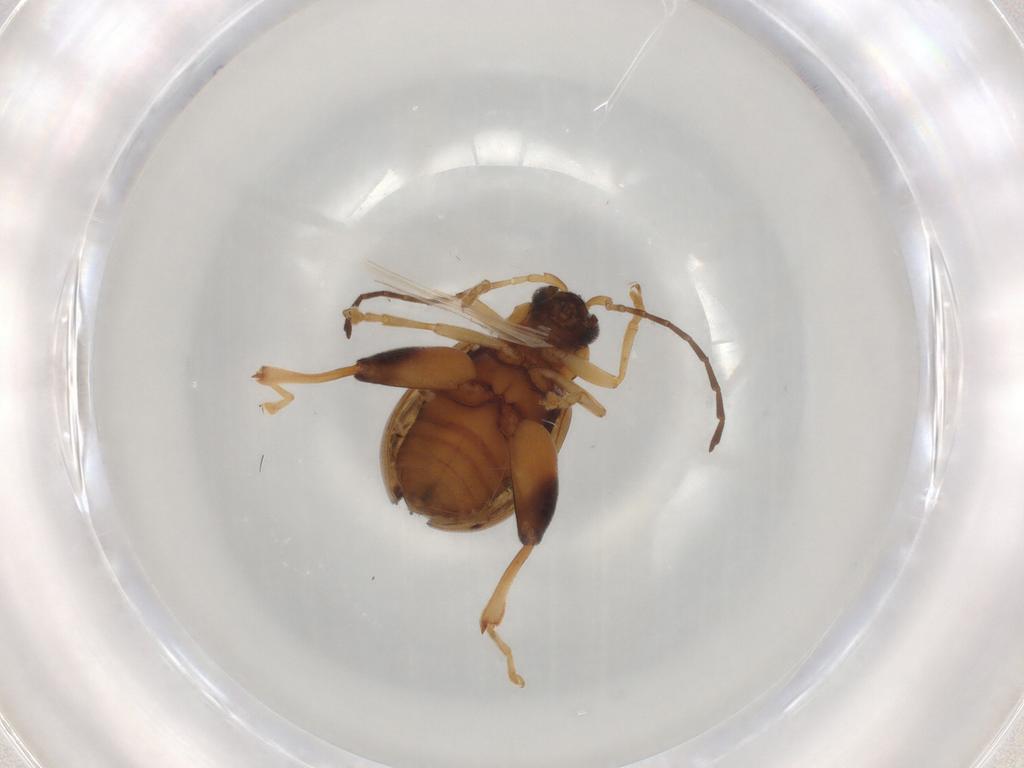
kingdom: Animalia
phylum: Arthropoda
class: Insecta
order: Coleoptera
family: Chrysomelidae
